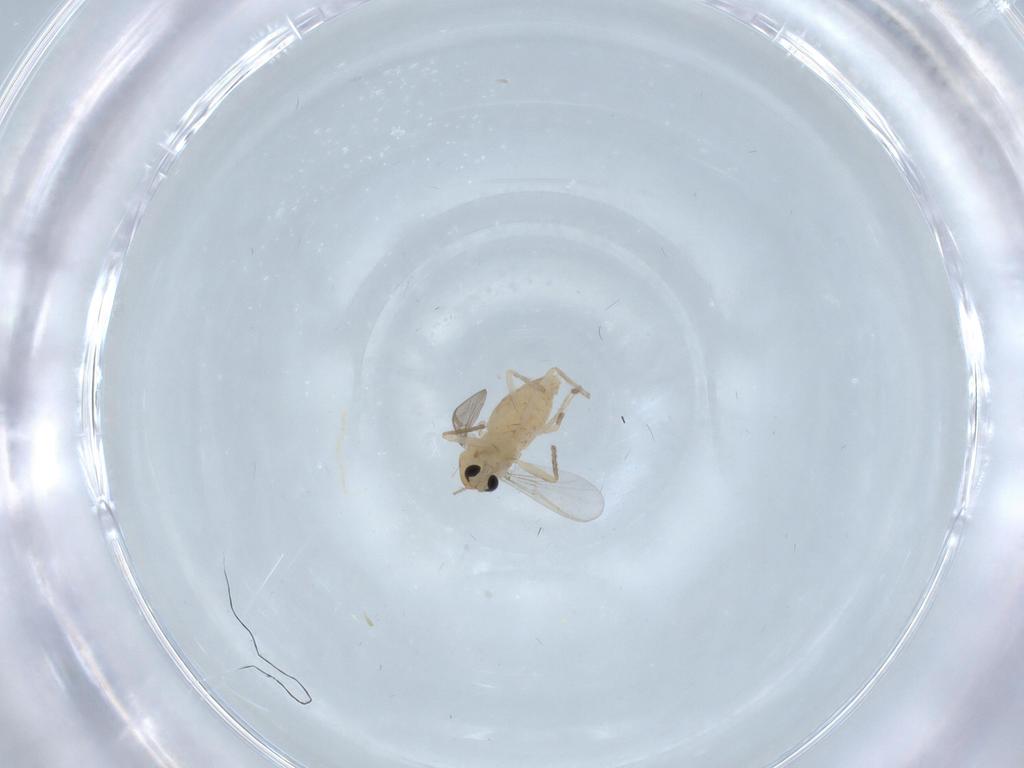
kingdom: Animalia
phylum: Arthropoda
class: Insecta
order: Diptera
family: Chironomidae
